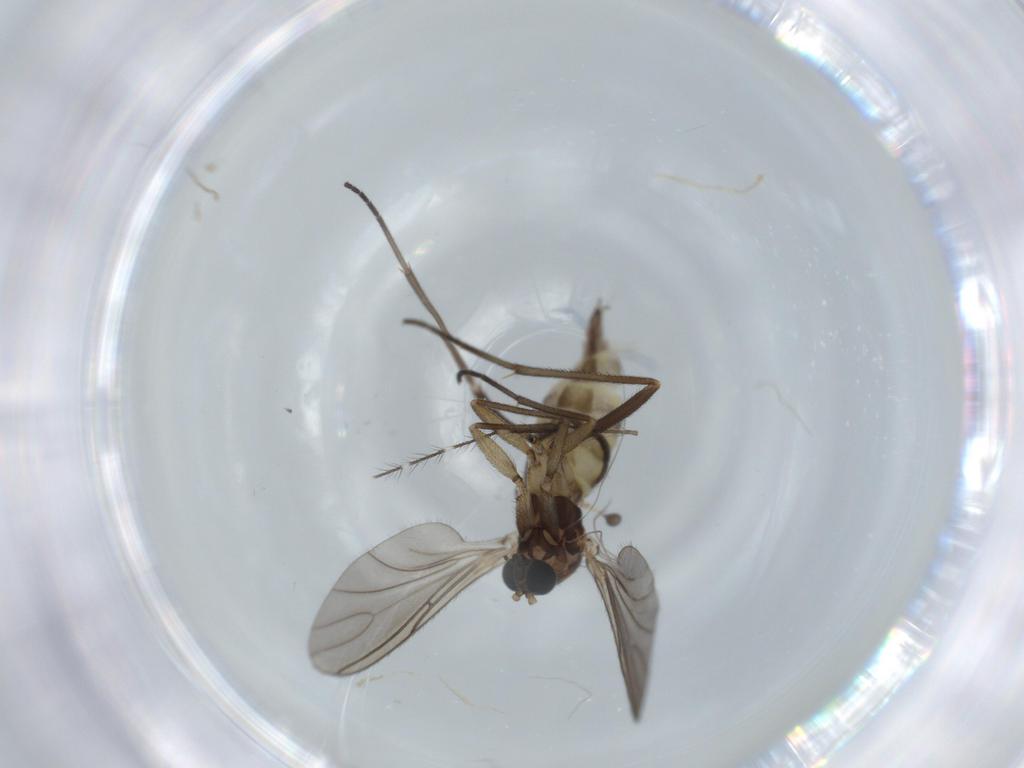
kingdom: Animalia
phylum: Arthropoda
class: Insecta
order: Diptera
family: Sciaridae
